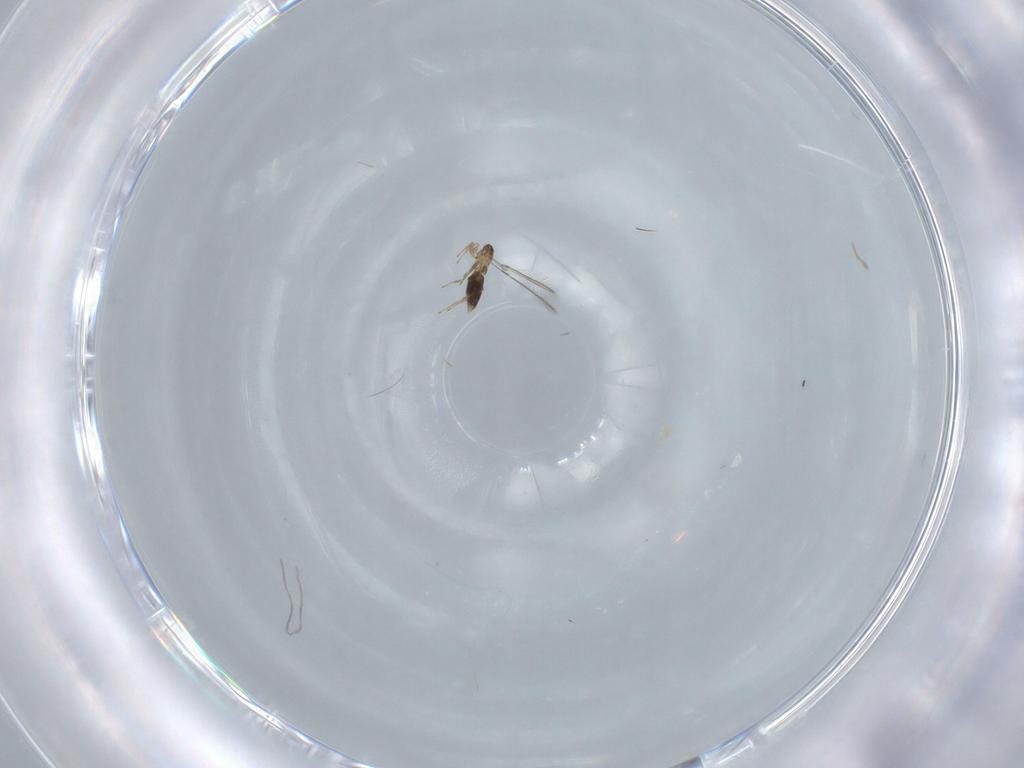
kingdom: Animalia
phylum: Arthropoda
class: Insecta
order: Hymenoptera
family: Mymaridae
